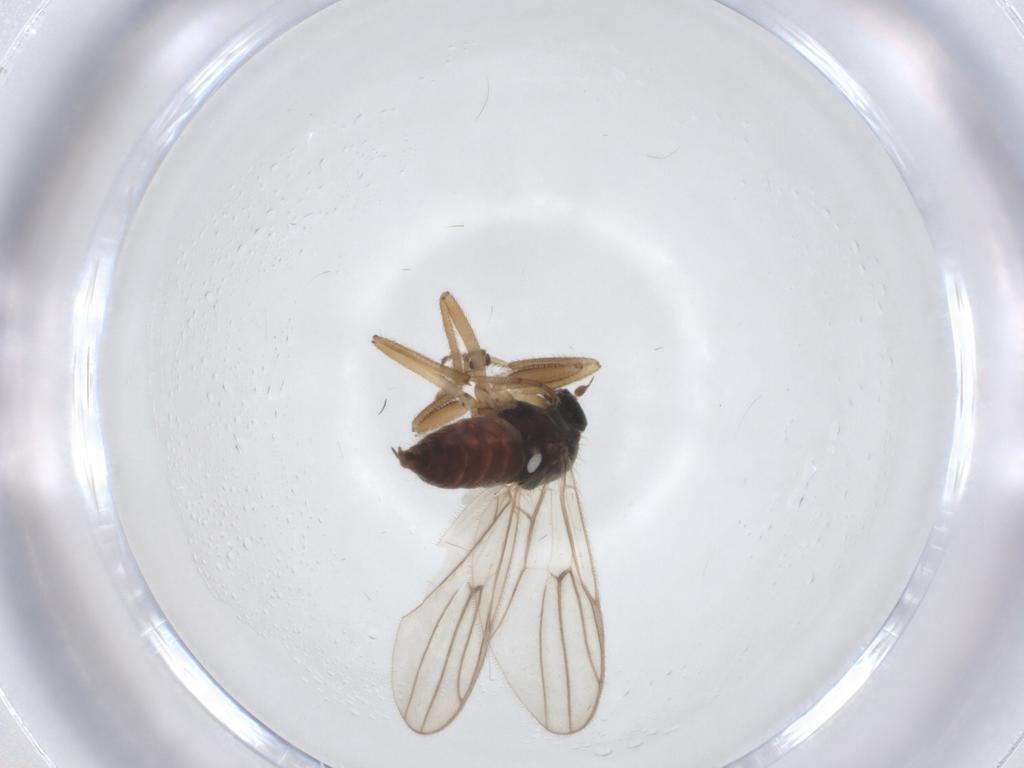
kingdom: Animalia
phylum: Arthropoda
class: Insecta
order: Diptera
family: Hybotidae
